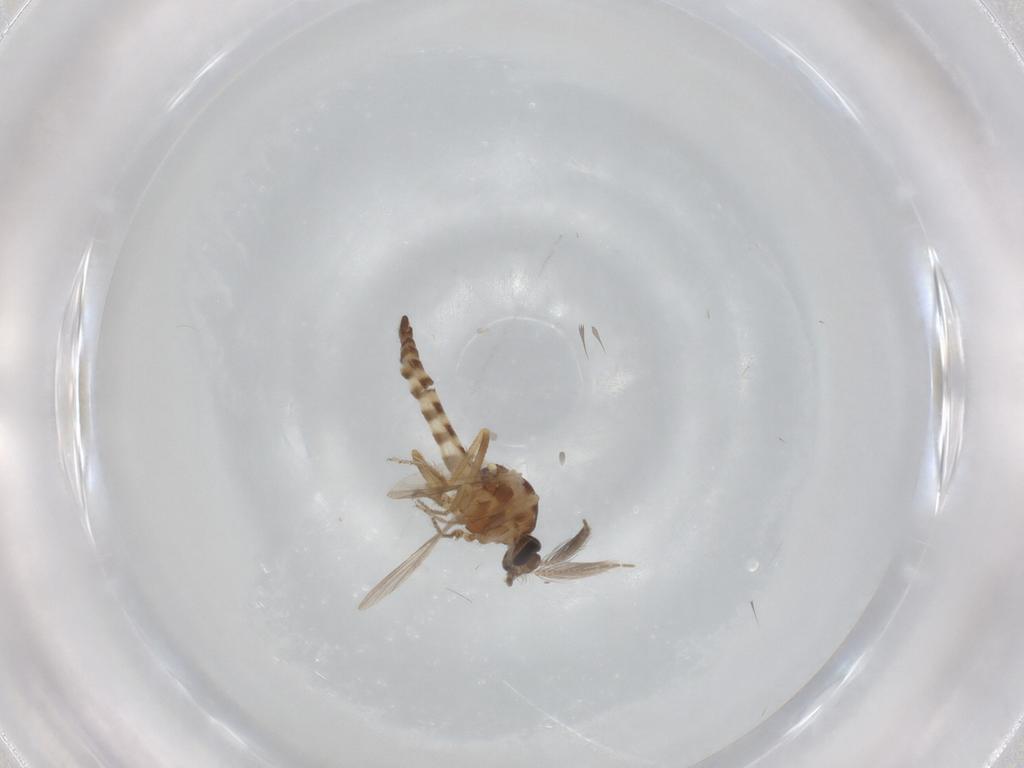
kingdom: Animalia
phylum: Arthropoda
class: Insecta
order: Diptera
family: Ceratopogonidae
